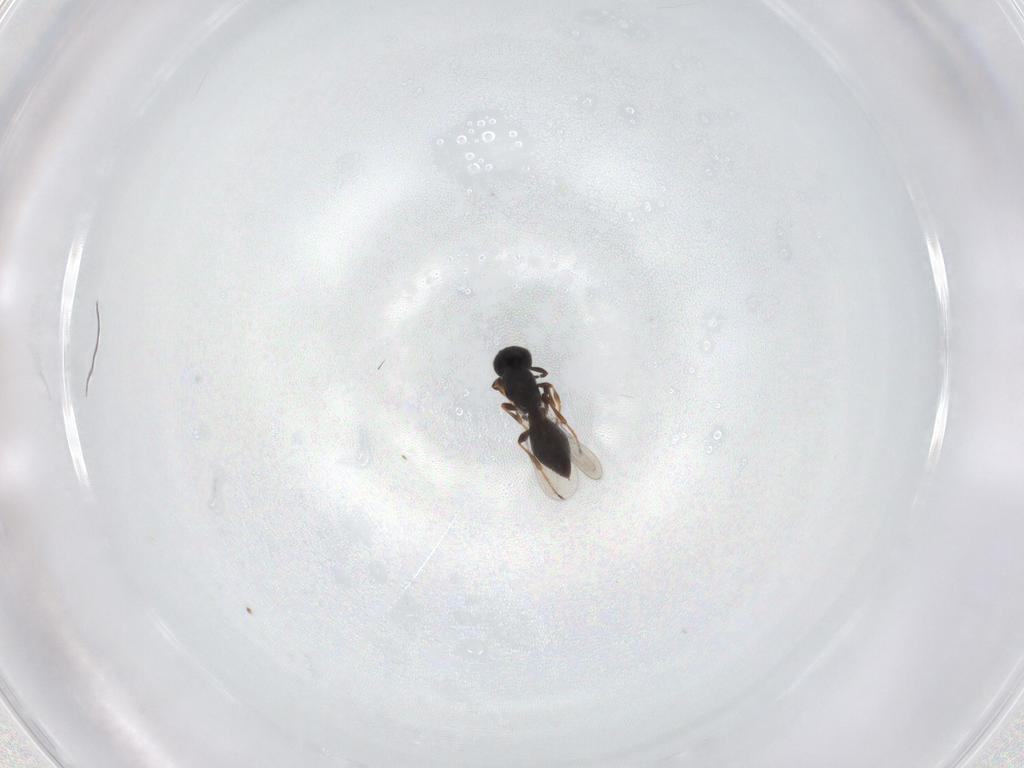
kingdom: Animalia
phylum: Arthropoda
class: Insecta
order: Hymenoptera
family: Platygastridae
